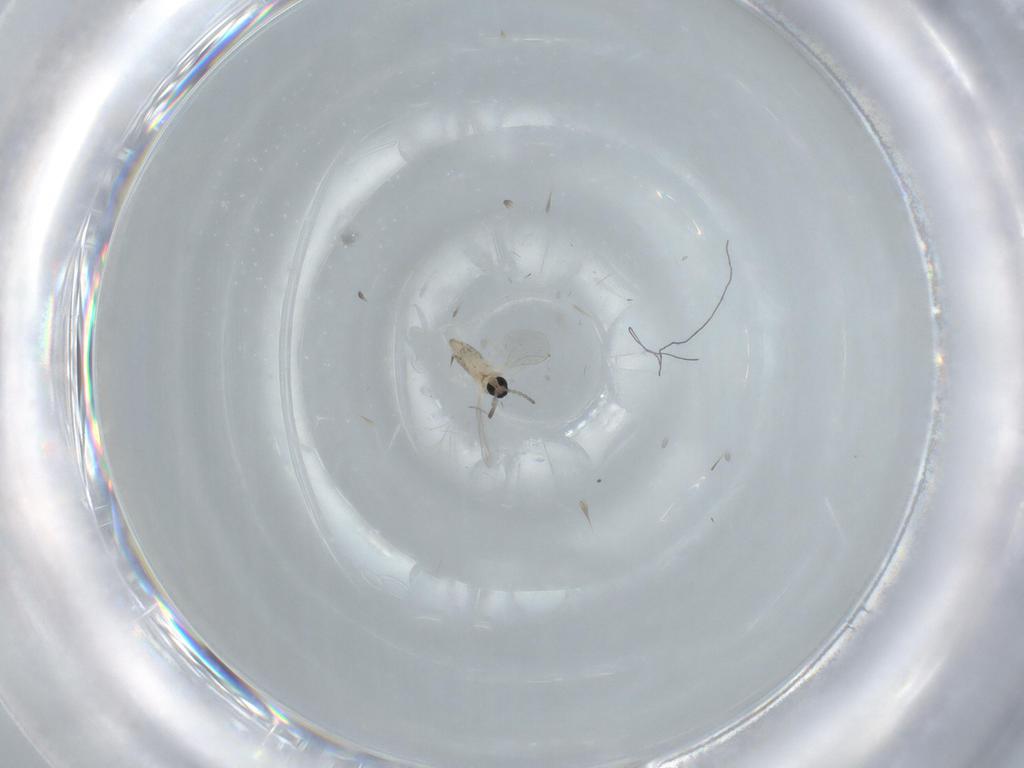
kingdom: Animalia
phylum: Arthropoda
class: Insecta
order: Diptera
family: Cecidomyiidae
